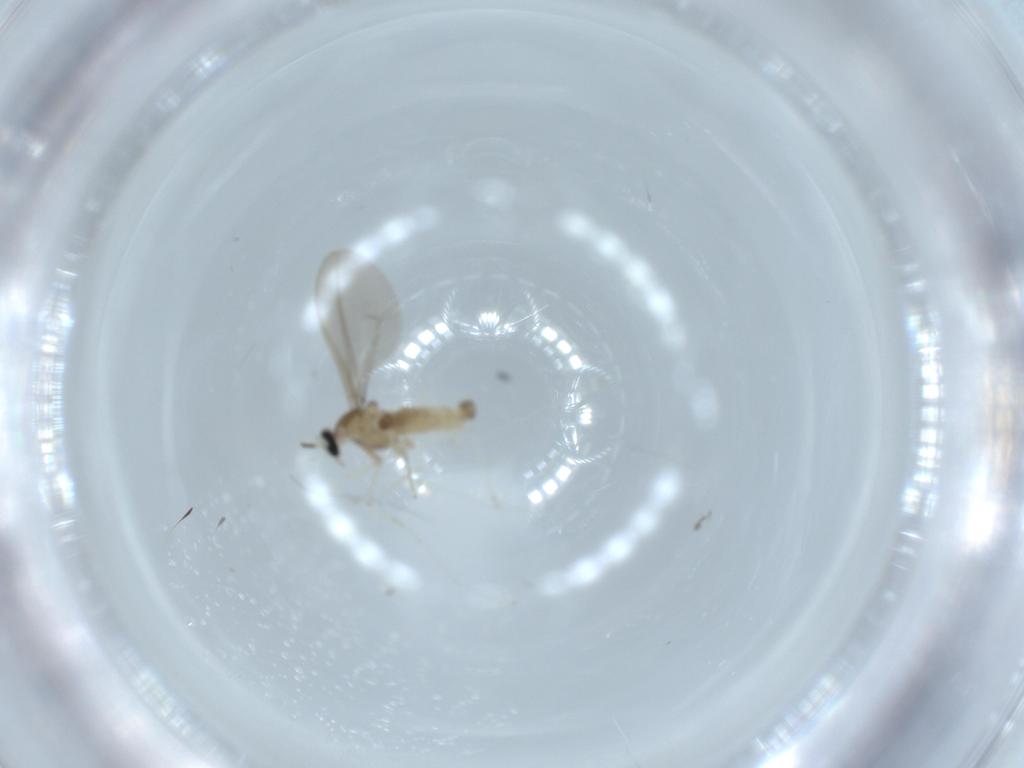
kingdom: Animalia
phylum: Arthropoda
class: Insecta
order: Diptera
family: Cecidomyiidae
